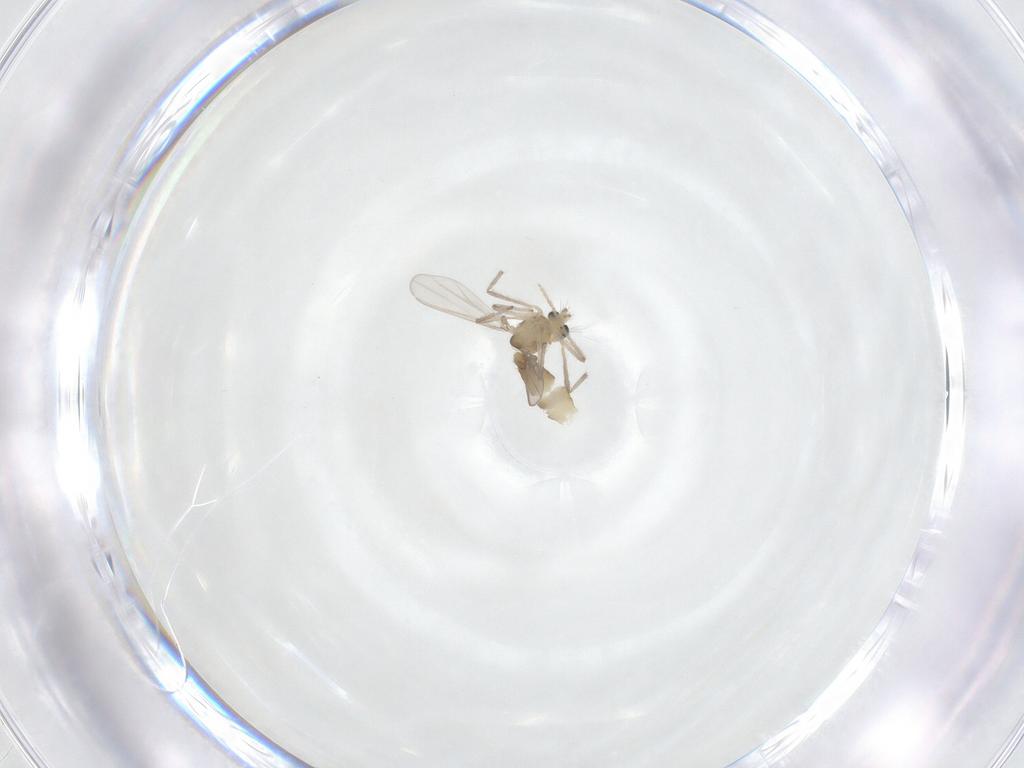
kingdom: Animalia
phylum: Arthropoda
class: Insecta
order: Diptera
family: Chironomidae
